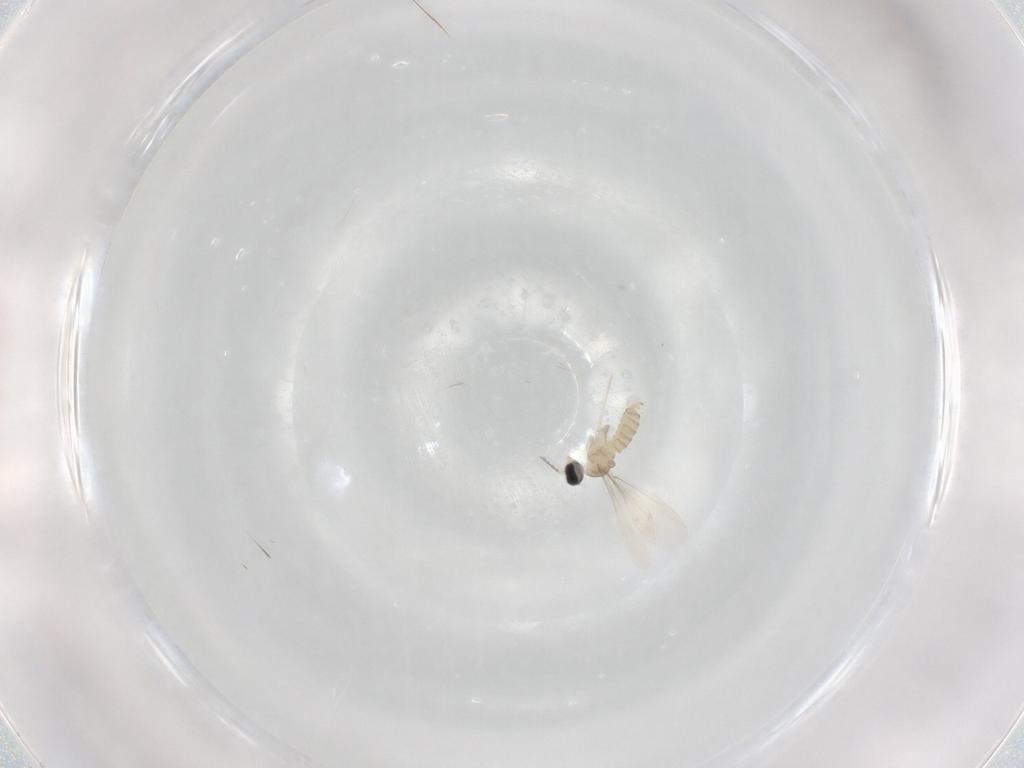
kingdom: Animalia
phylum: Arthropoda
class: Insecta
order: Diptera
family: Cecidomyiidae
